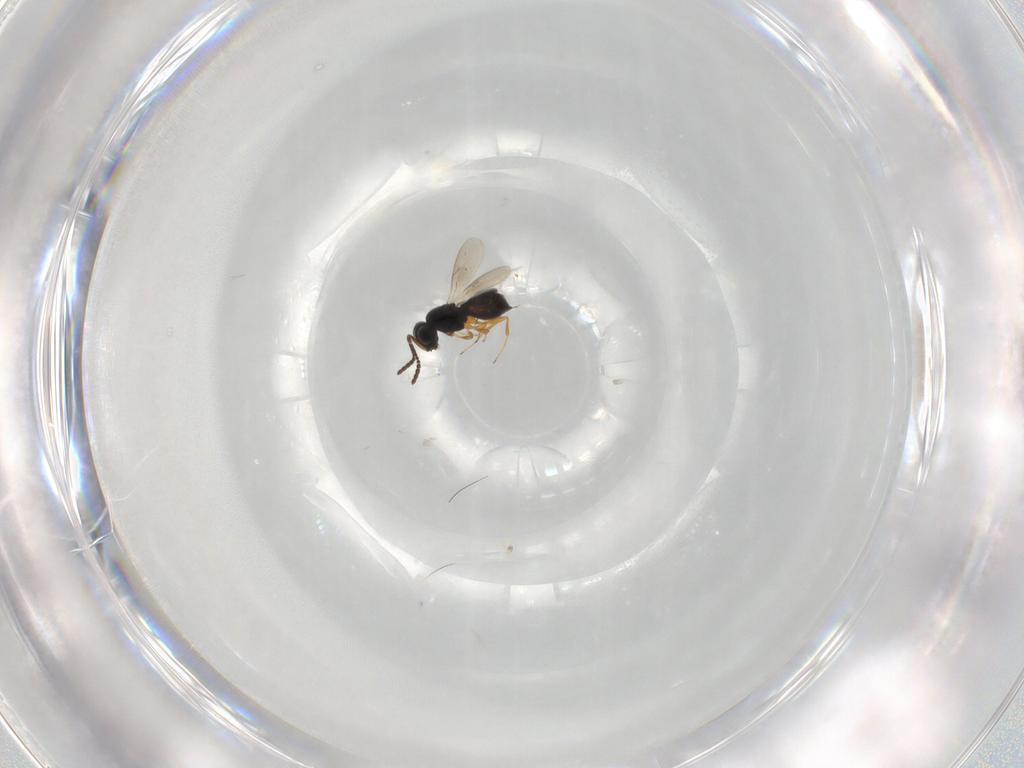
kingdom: Animalia
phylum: Arthropoda
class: Insecta
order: Hymenoptera
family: Scelionidae
